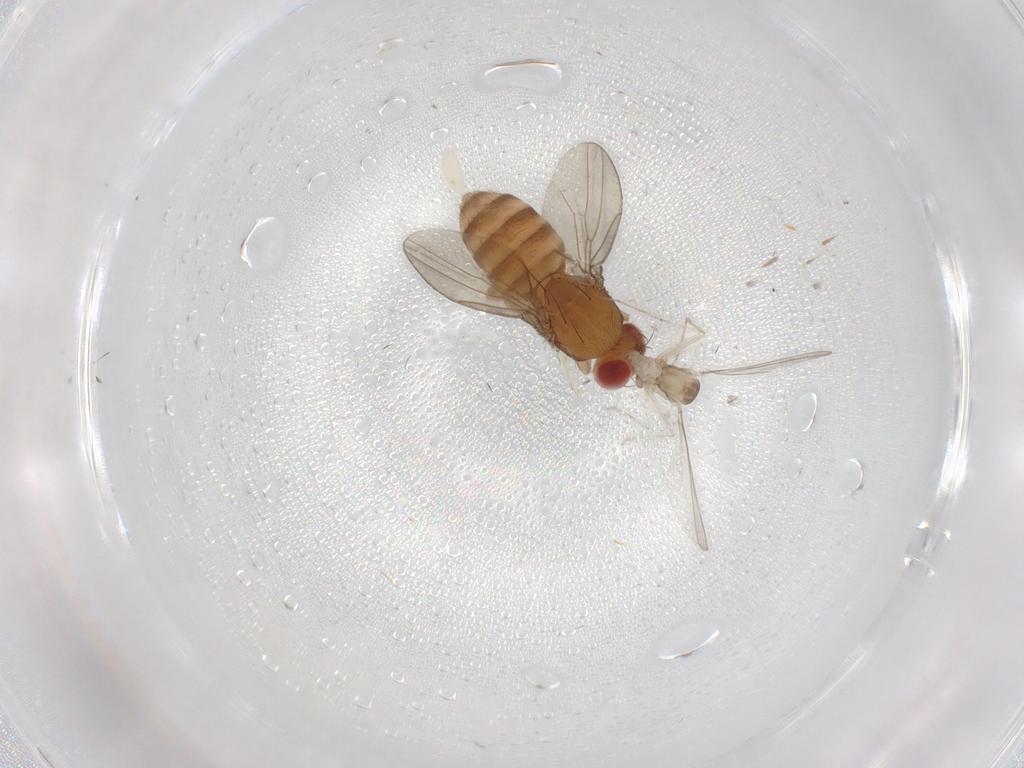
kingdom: Animalia
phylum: Arthropoda
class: Insecta
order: Diptera
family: Drosophilidae
